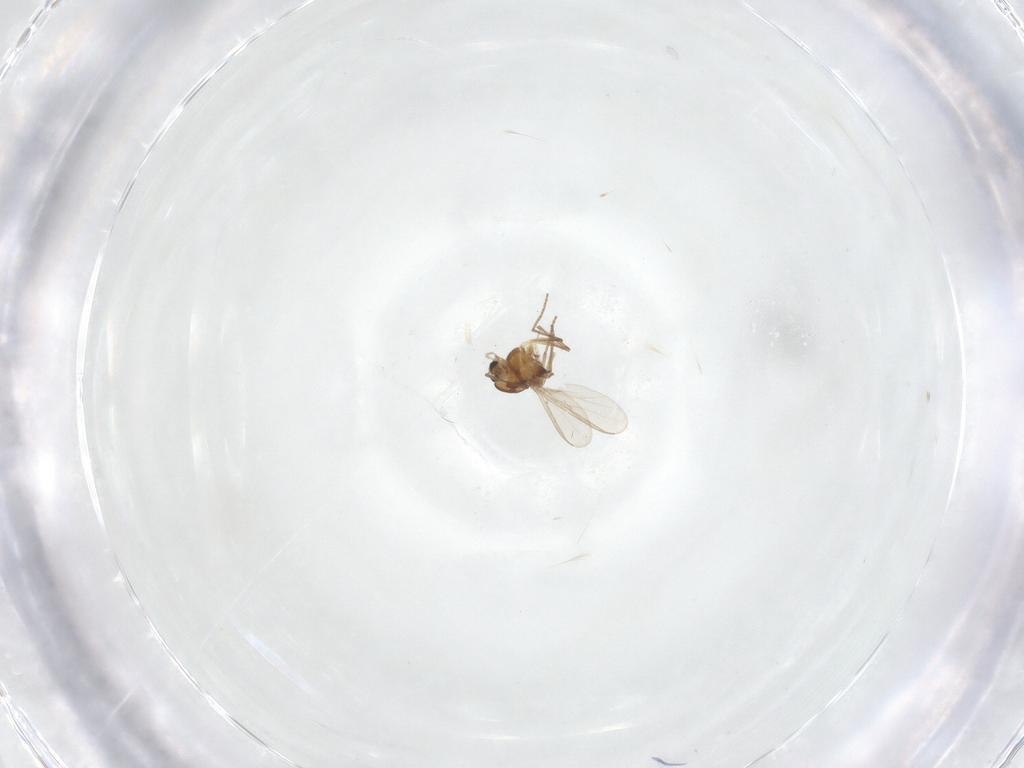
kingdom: Animalia
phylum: Arthropoda
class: Insecta
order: Diptera
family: Chironomidae
